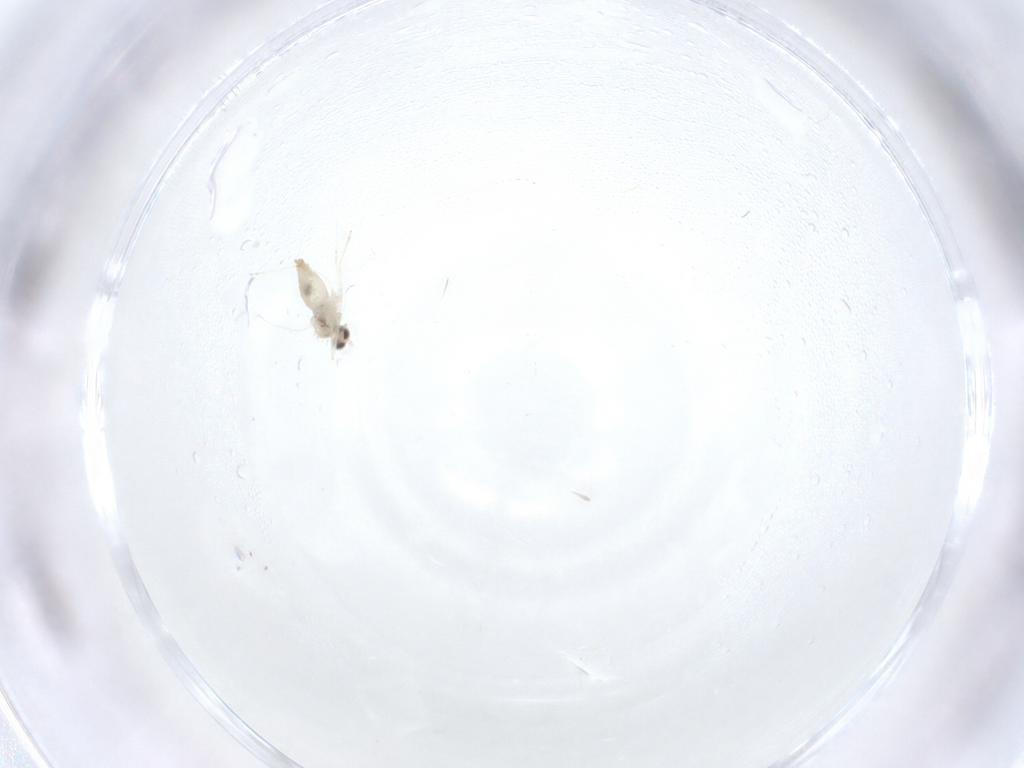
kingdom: Animalia
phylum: Arthropoda
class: Insecta
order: Diptera
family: Cecidomyiidae
